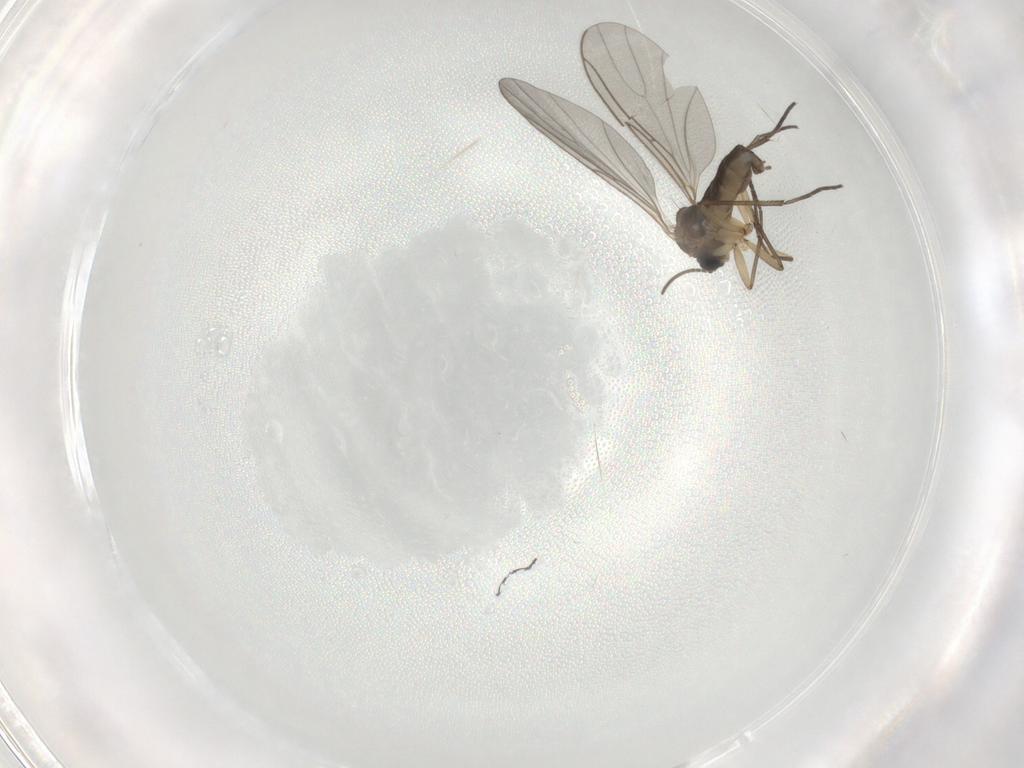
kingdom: Animalia
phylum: Arthropoda
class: Insecta
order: Diptera
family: Sciaridae
